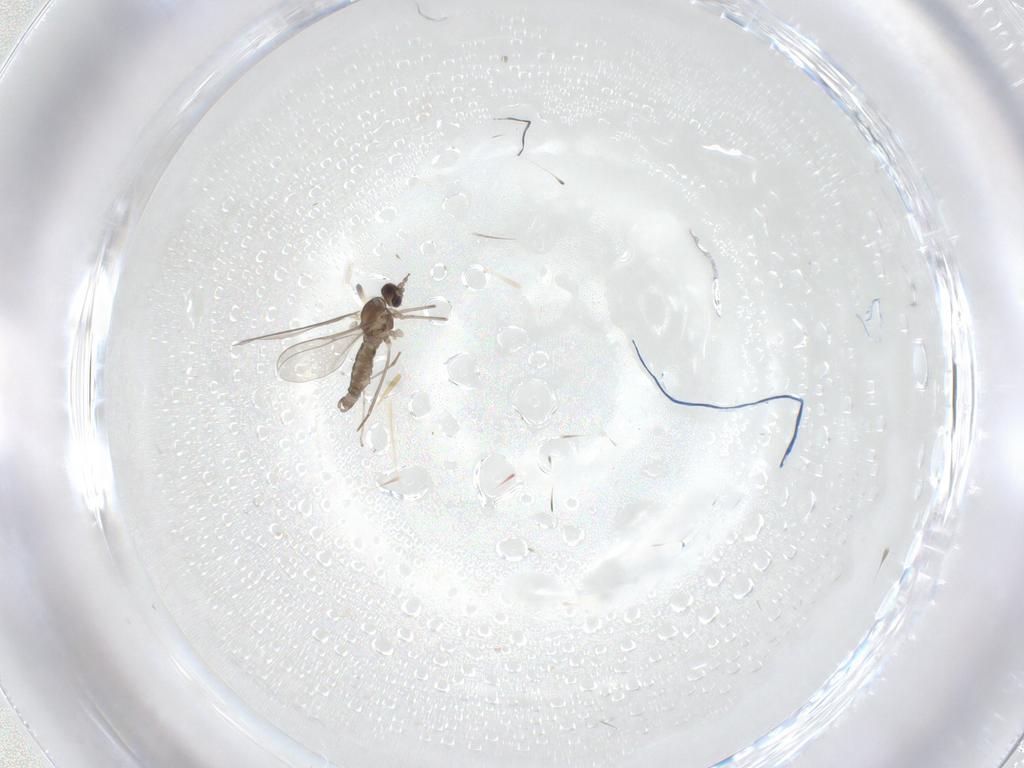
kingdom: Animalia
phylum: Arthropoda
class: Insecta
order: Diptera
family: Cecidomyiidae
